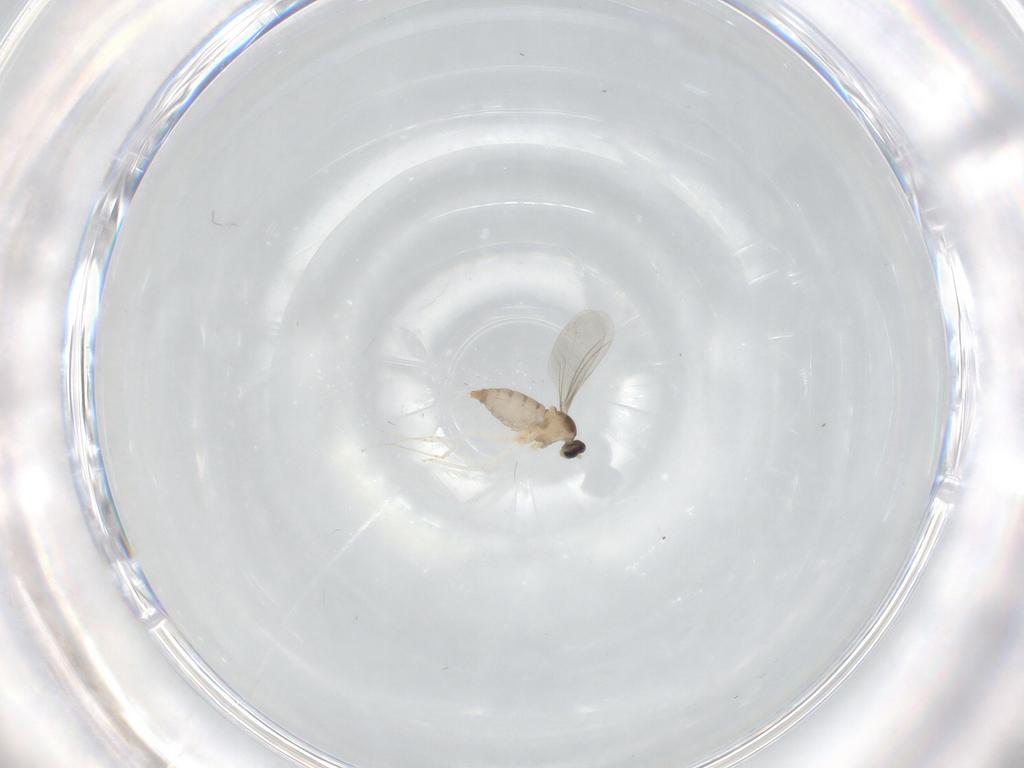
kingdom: Animalia
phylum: Arthropoda
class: Insecta
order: Diptera
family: Cecidomyiidae
